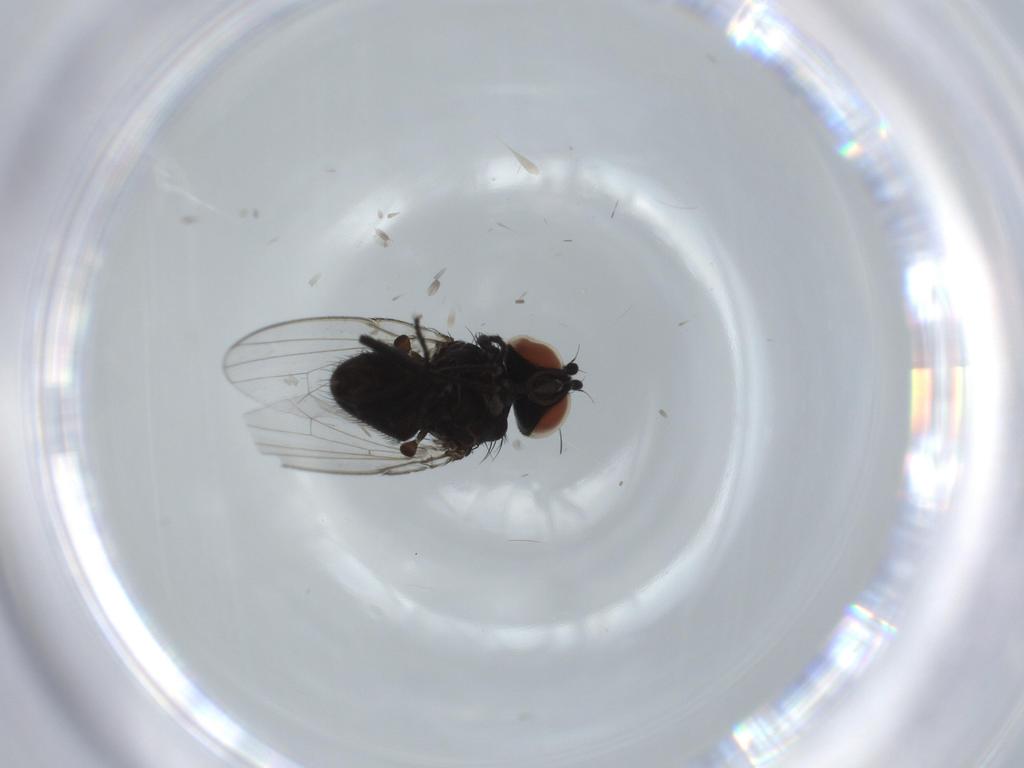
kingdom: Animalia
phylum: Arthropoda
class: Insecta
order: Diptera
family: Milichiidae
